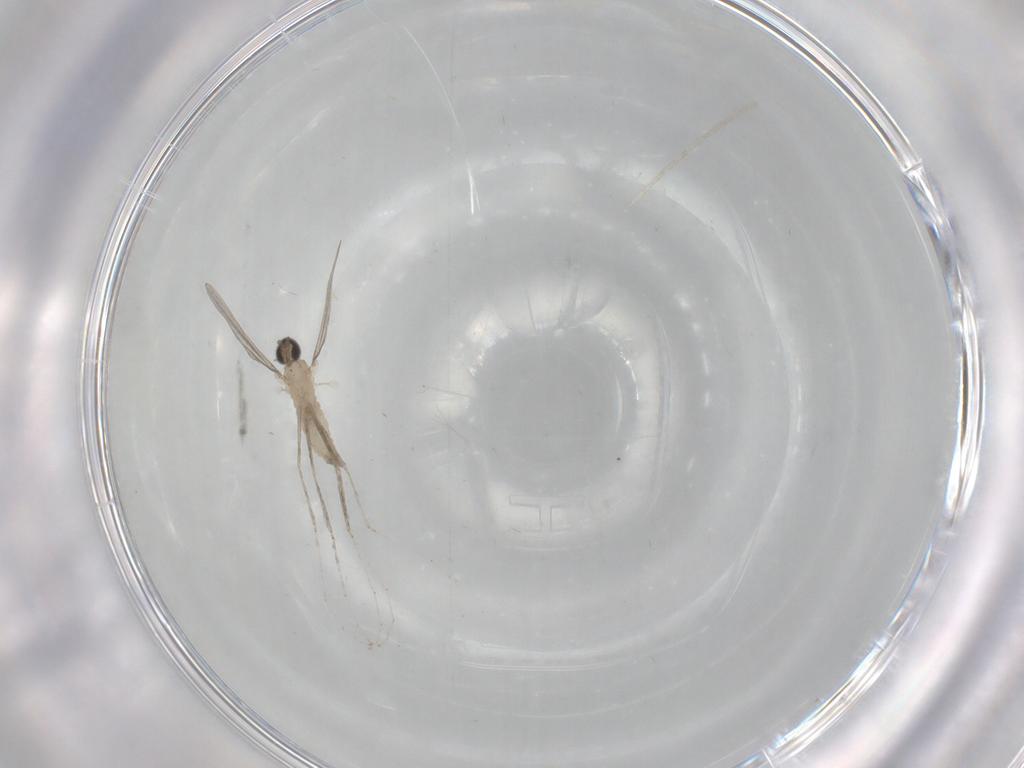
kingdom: Animalia
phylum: Arthropoda
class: Insecta
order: Diptera
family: Cecidomyiidae
